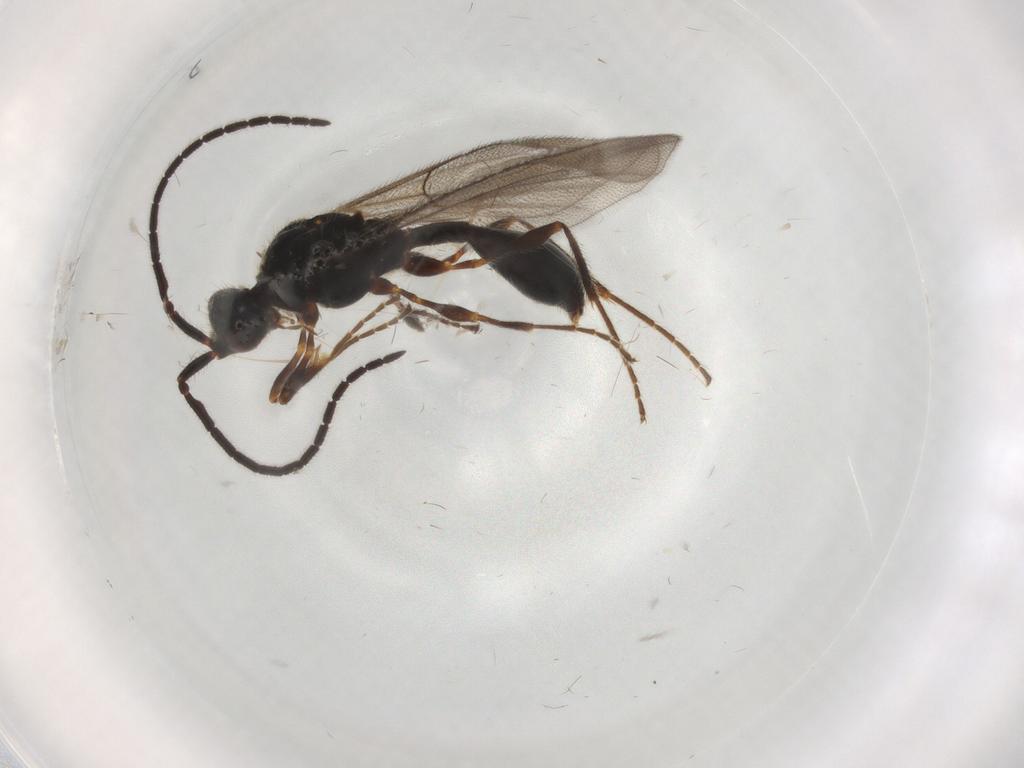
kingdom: Animalia
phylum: Arthropoda
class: Insecta
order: Hymenoptera
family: Diapriidae
